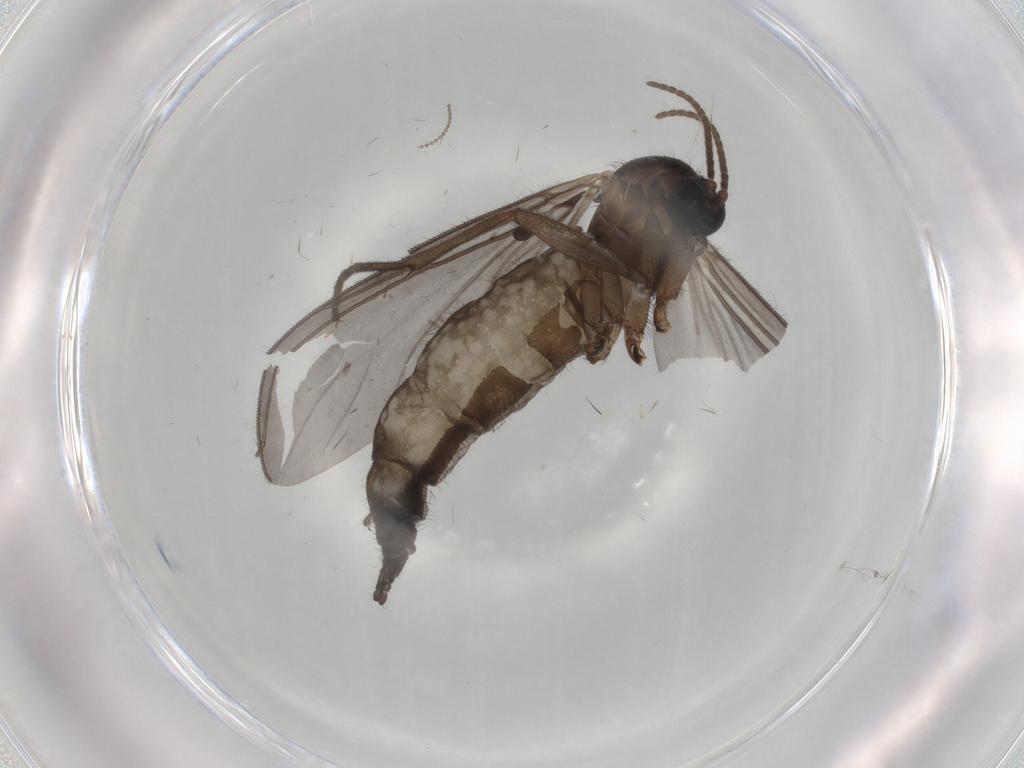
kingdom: Animalia
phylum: Arthropoda
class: Insecta
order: Diptera
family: Sciaridae
